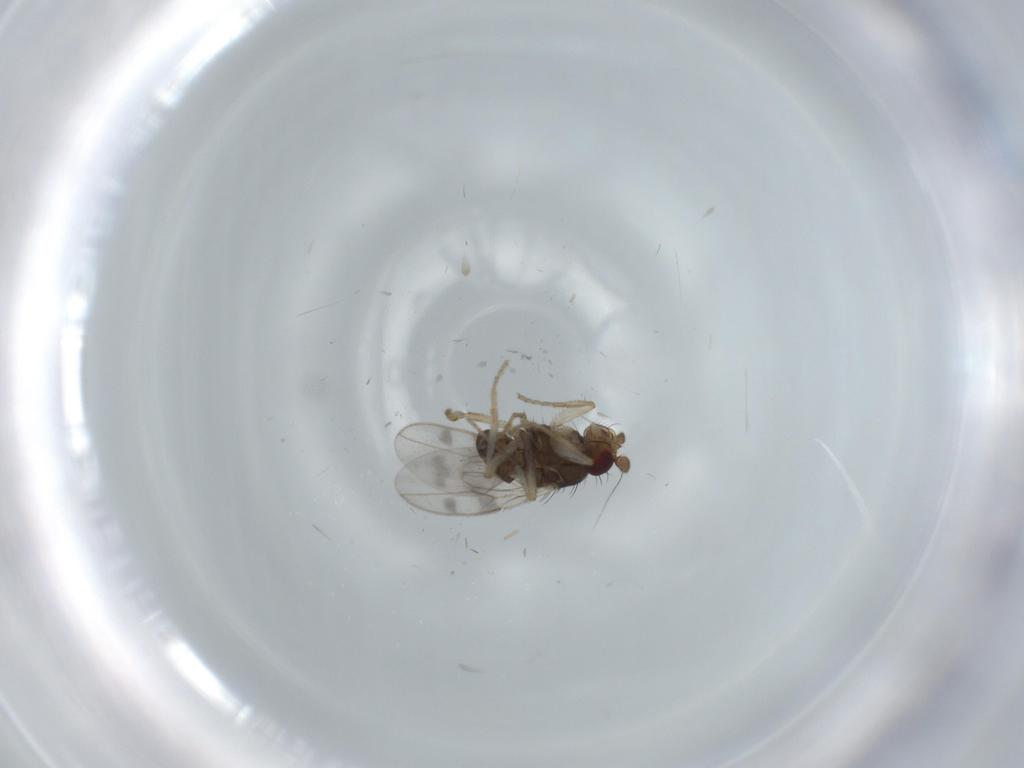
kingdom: Animalia
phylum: Arthropoda
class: Insecta
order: Diptera
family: Sphaeroceridae
